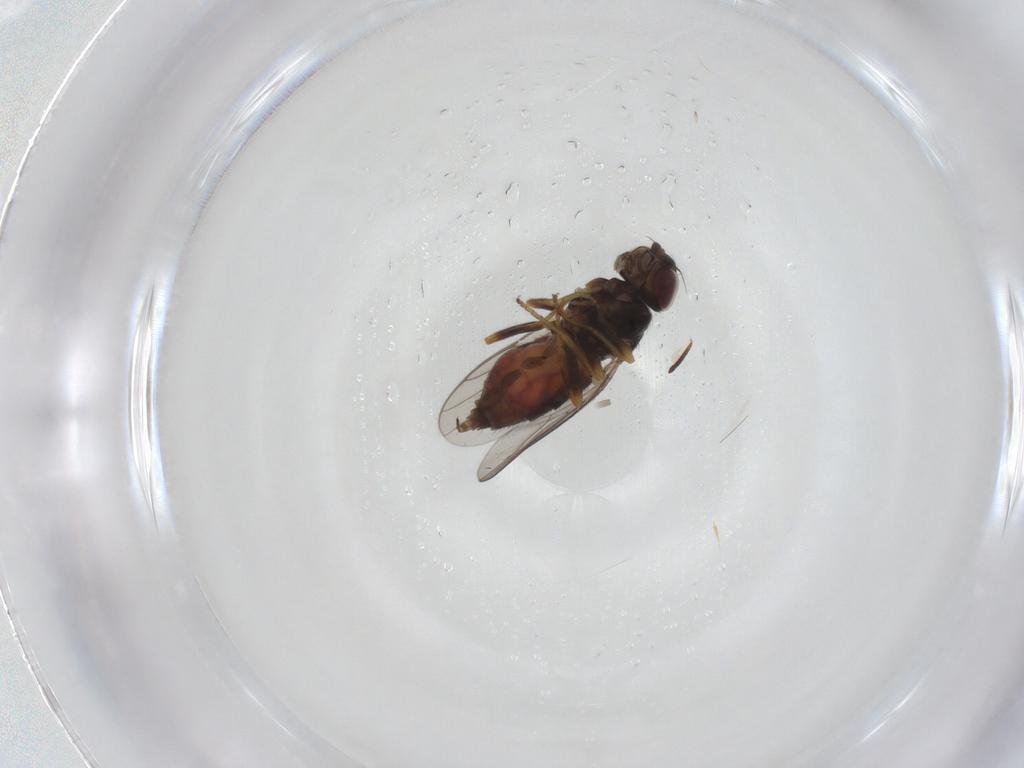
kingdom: Animalia
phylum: Arthropoda
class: Insecta
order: Diptera
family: Chloropidae
